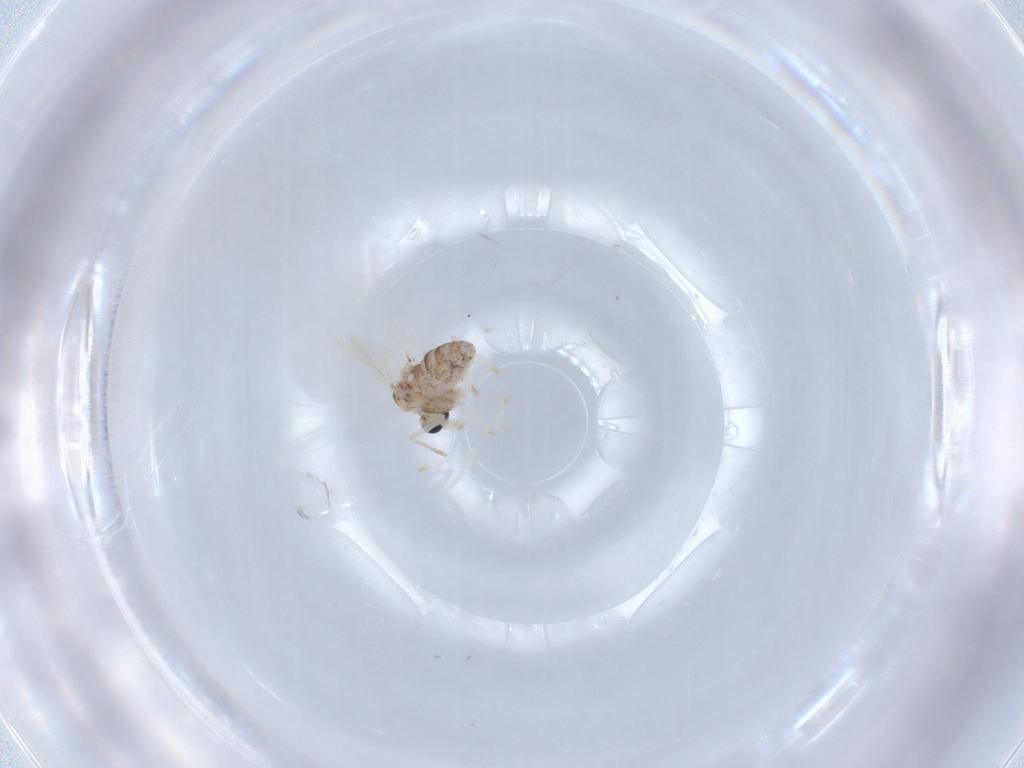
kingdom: Animalia
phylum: Arthropoda
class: Insecta
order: Diptera
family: Chironomidae
